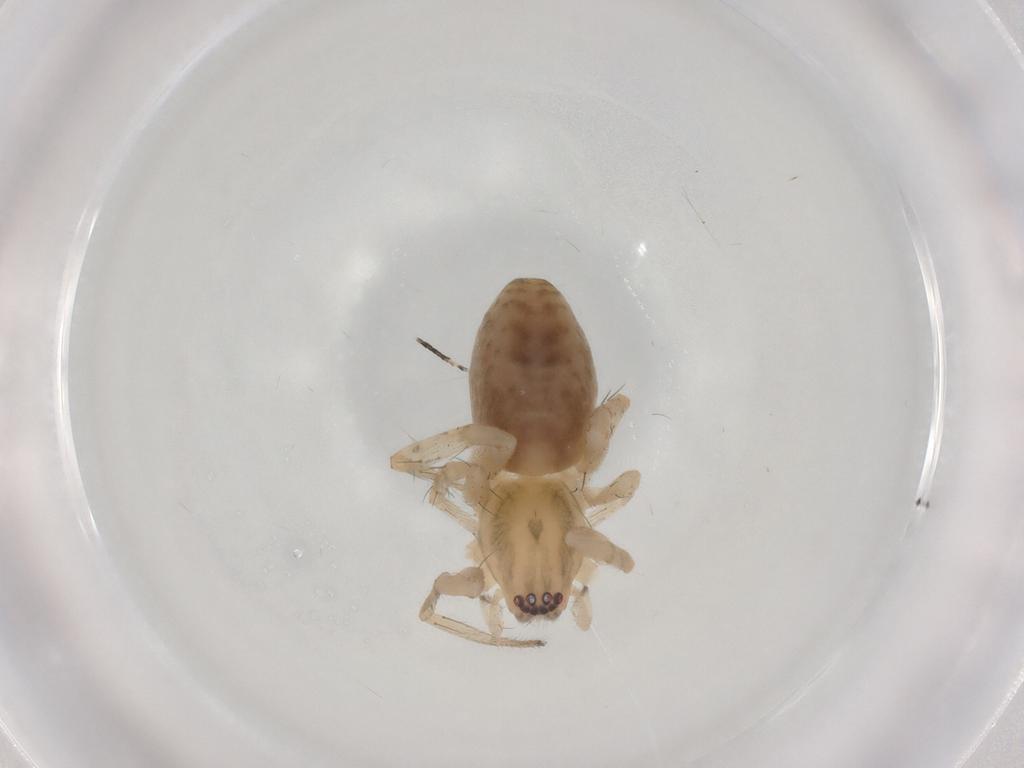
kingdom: Animalia
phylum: Arthropoda
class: Arachnida
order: Araneae
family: Anyphaenidae
